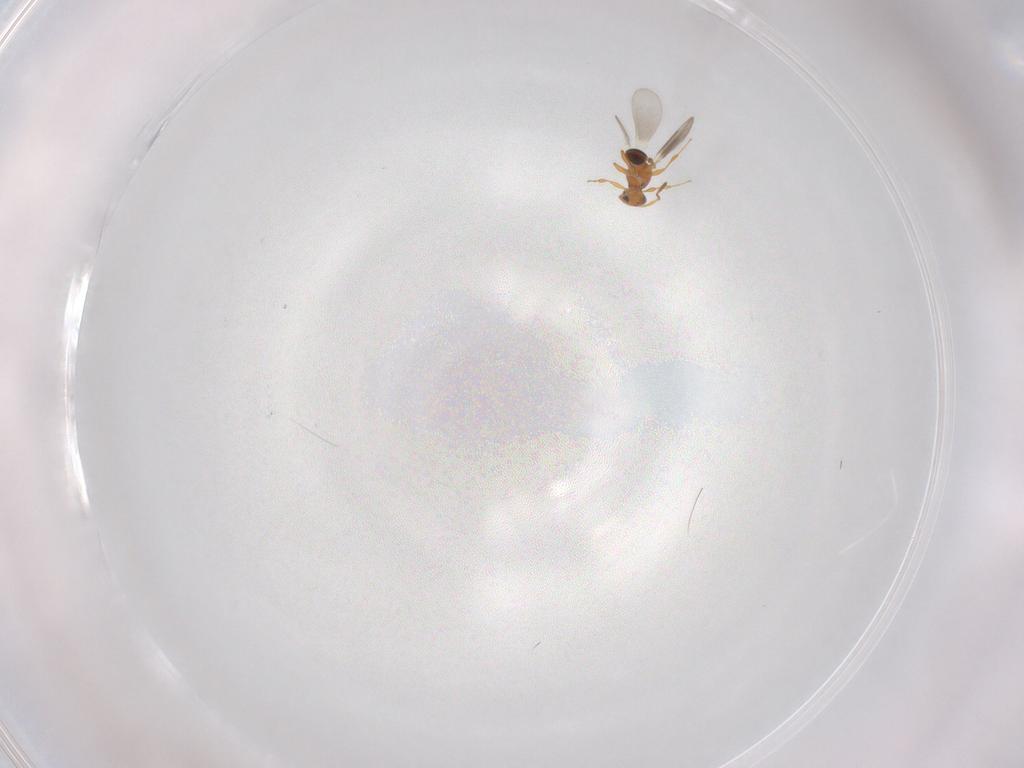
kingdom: Animalia
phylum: Arthropoda
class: Insecta
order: Hymenoptera
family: Platygastridae
